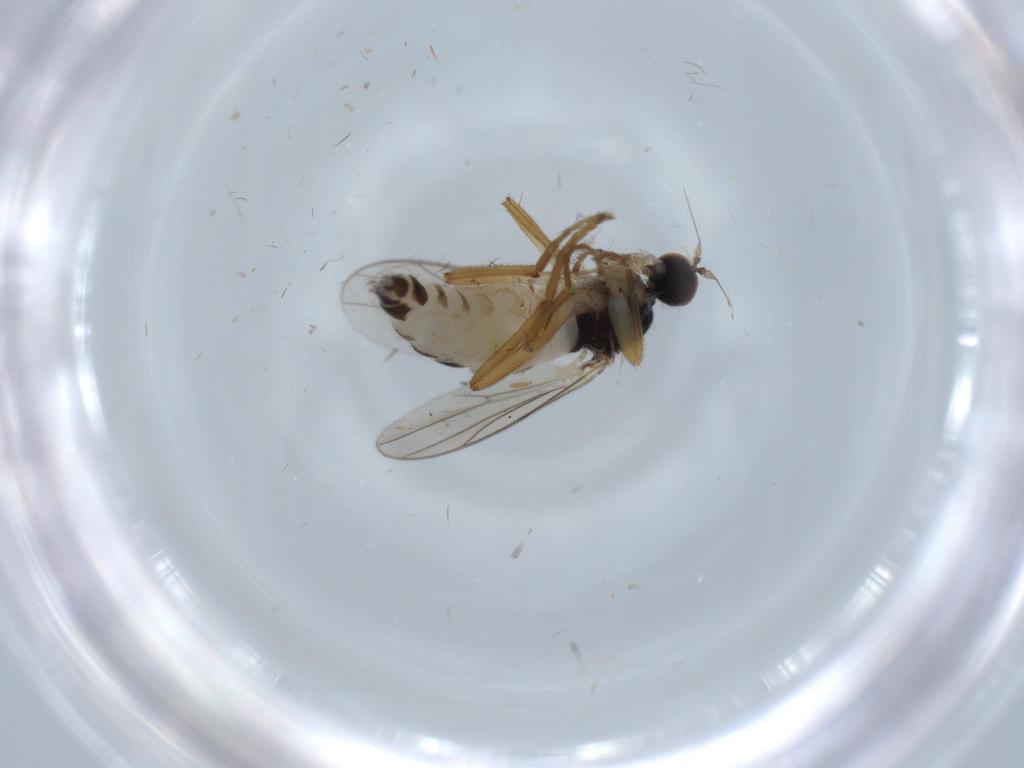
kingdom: Animalia
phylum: Arthropoda
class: Insecta
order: Diptera
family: Hybotidae
